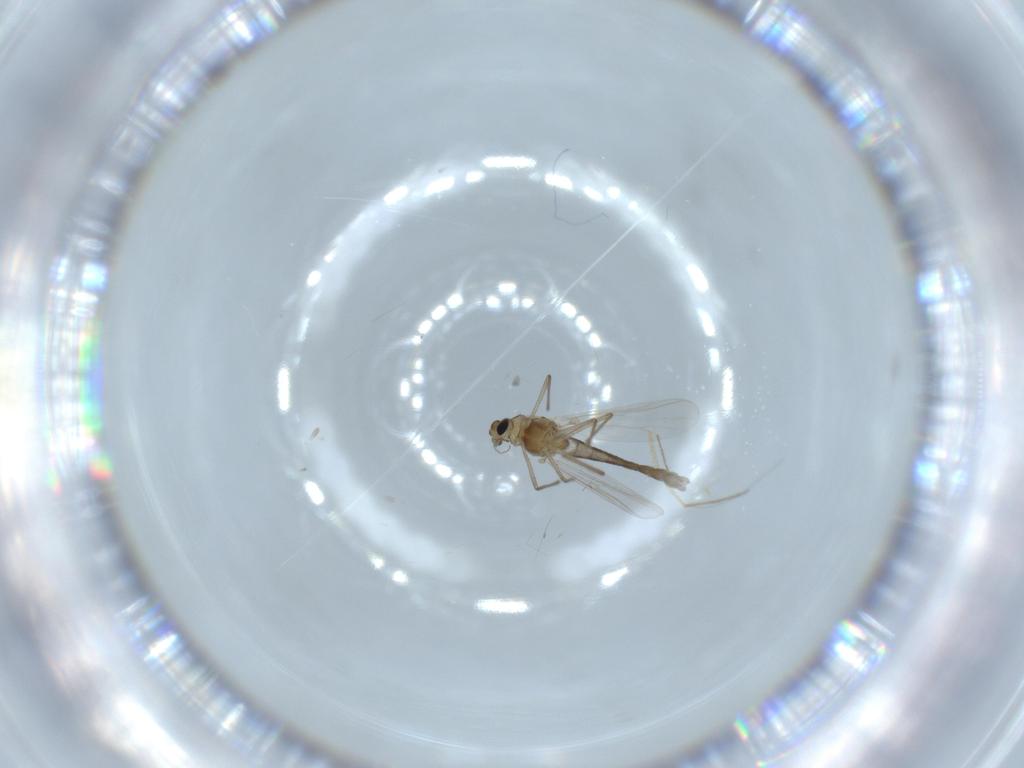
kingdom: Animalia
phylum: Arthropoda
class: Insecta
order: Diptera
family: Chironomidae
